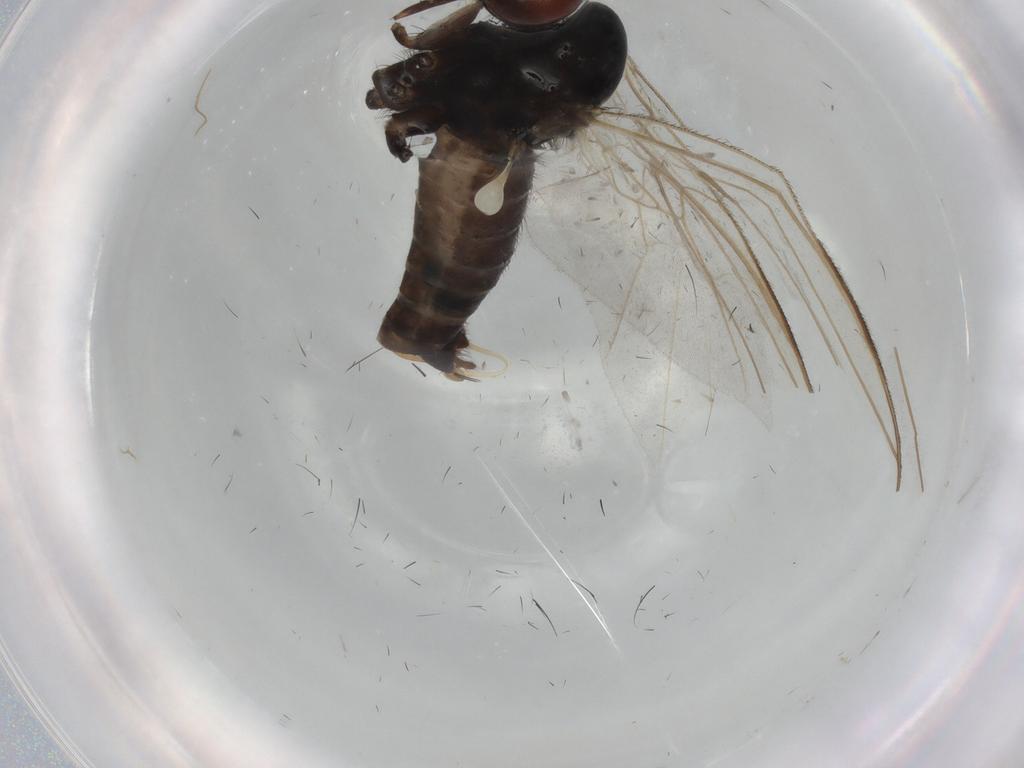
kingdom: Animalia
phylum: Arthropoda
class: Insecta
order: Diptera
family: Empididae
